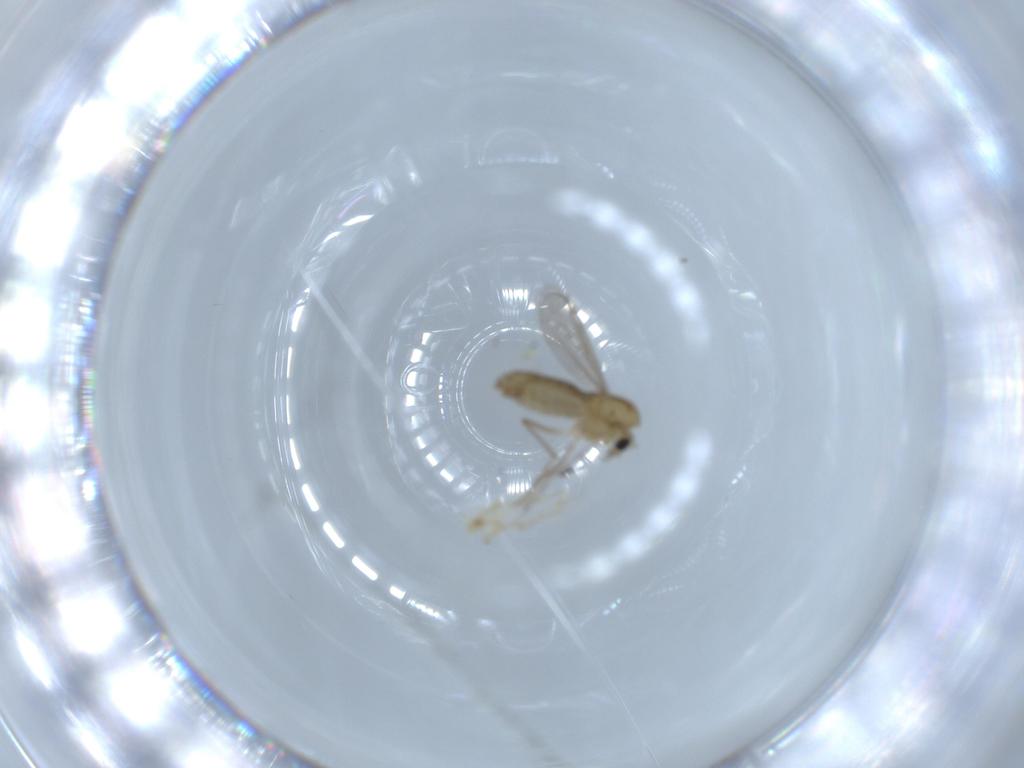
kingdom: Animalia
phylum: Arthropoda
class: Insecta
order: Diptera
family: Chironomidae
